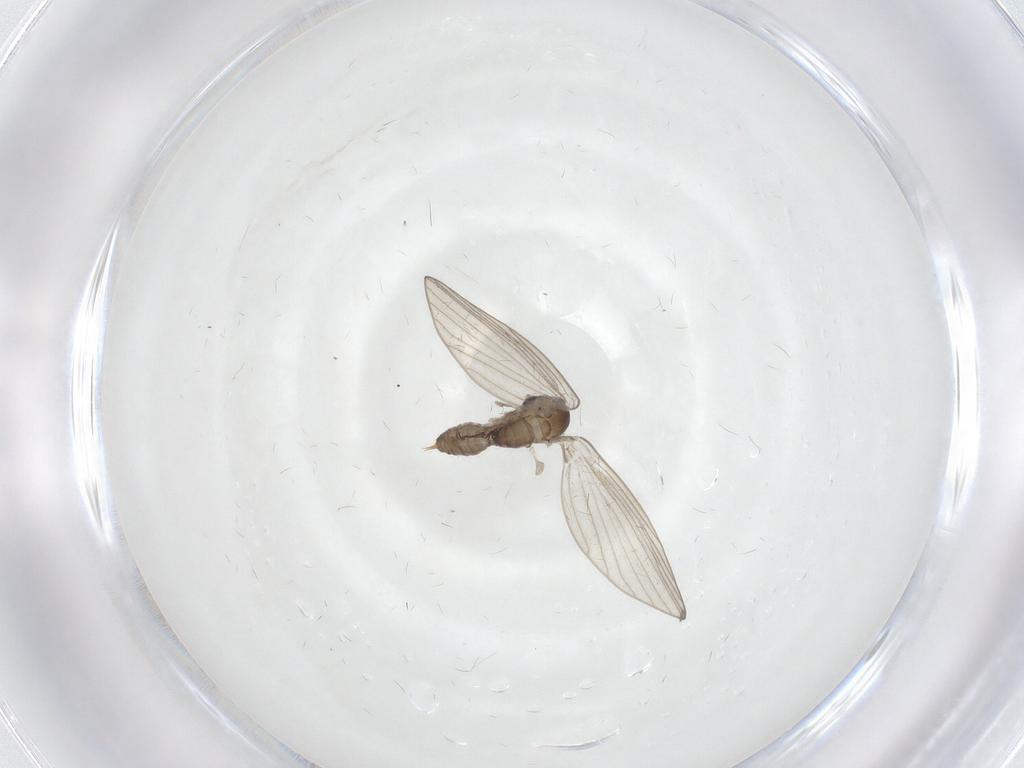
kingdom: Animalia
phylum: Arthropoda
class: Insecta
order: Diptera
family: Psychodidae
